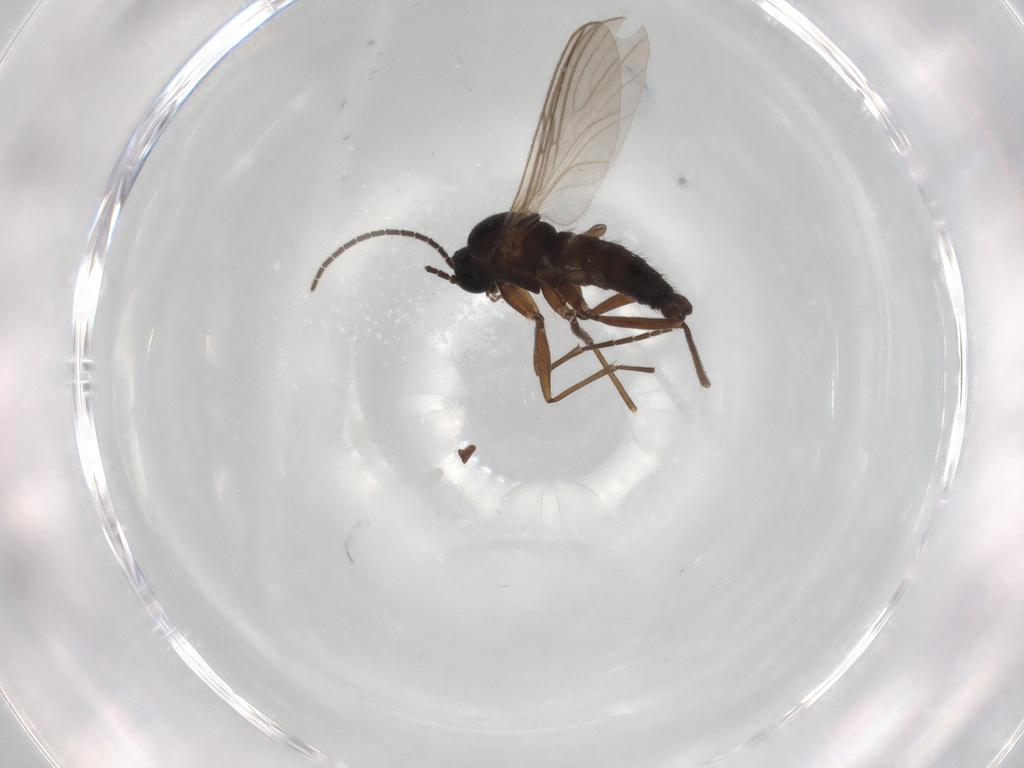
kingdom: Animalia
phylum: Arthropoda
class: Insecta
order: Diptera
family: Sciaridae
